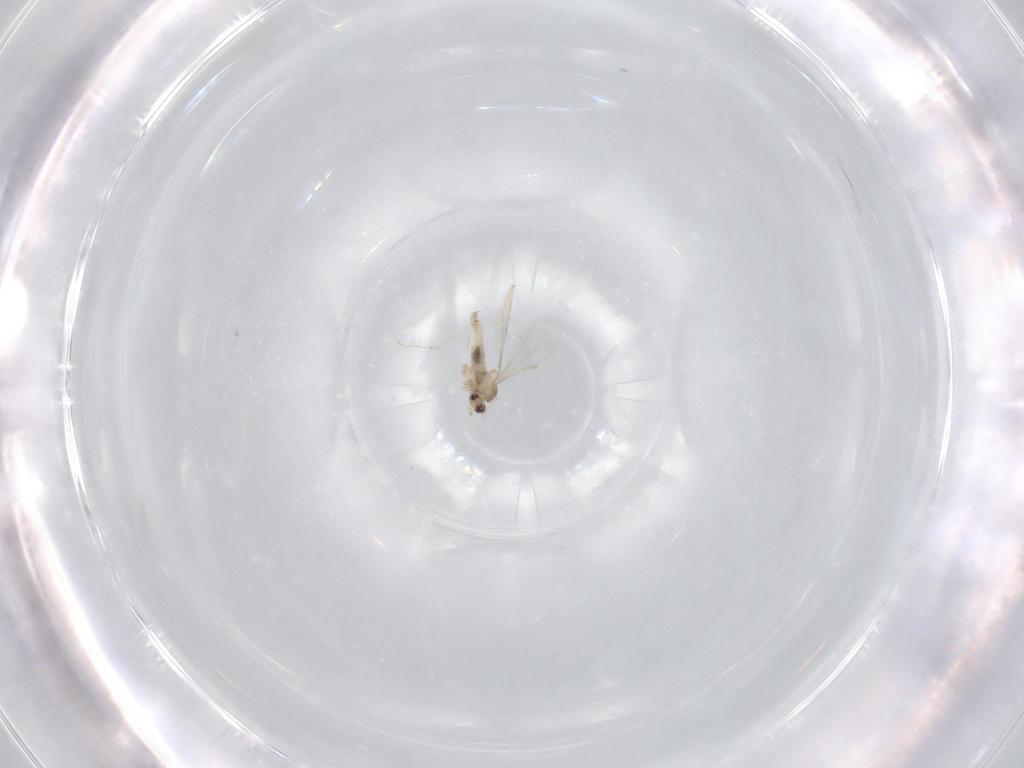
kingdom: Animalia
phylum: Arthropoda
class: Insecta
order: Diptera
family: Cecidomyiidae
